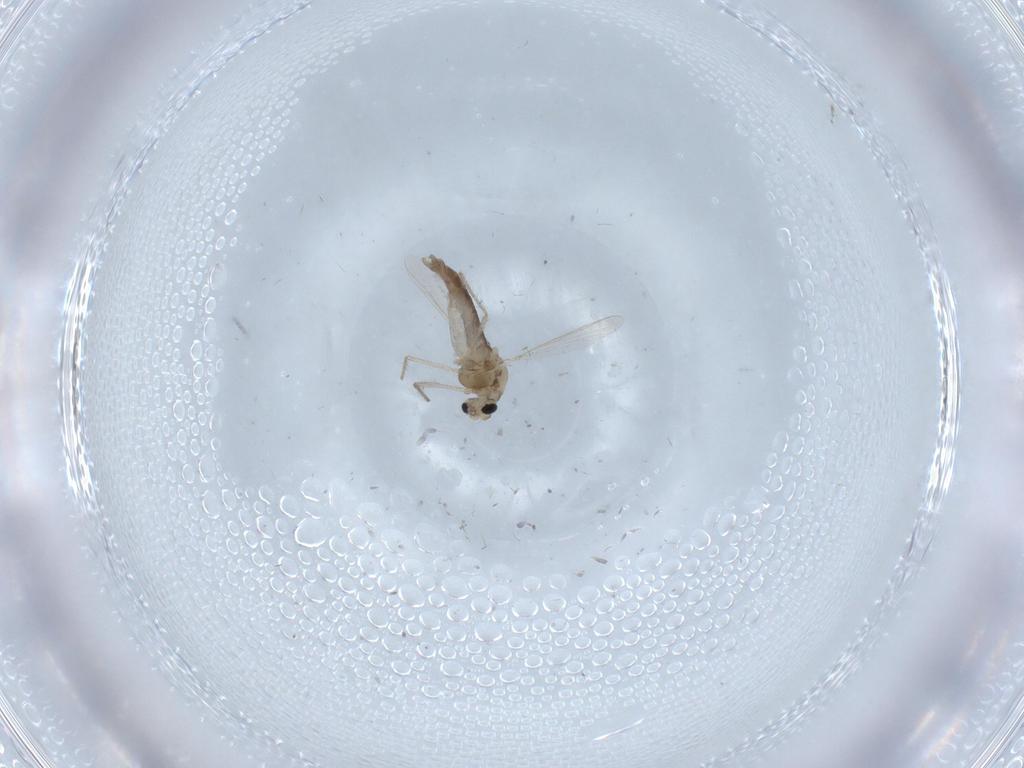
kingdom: Animalia
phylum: Arthropoda
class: Insecta
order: Diptera
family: Chironomidae
